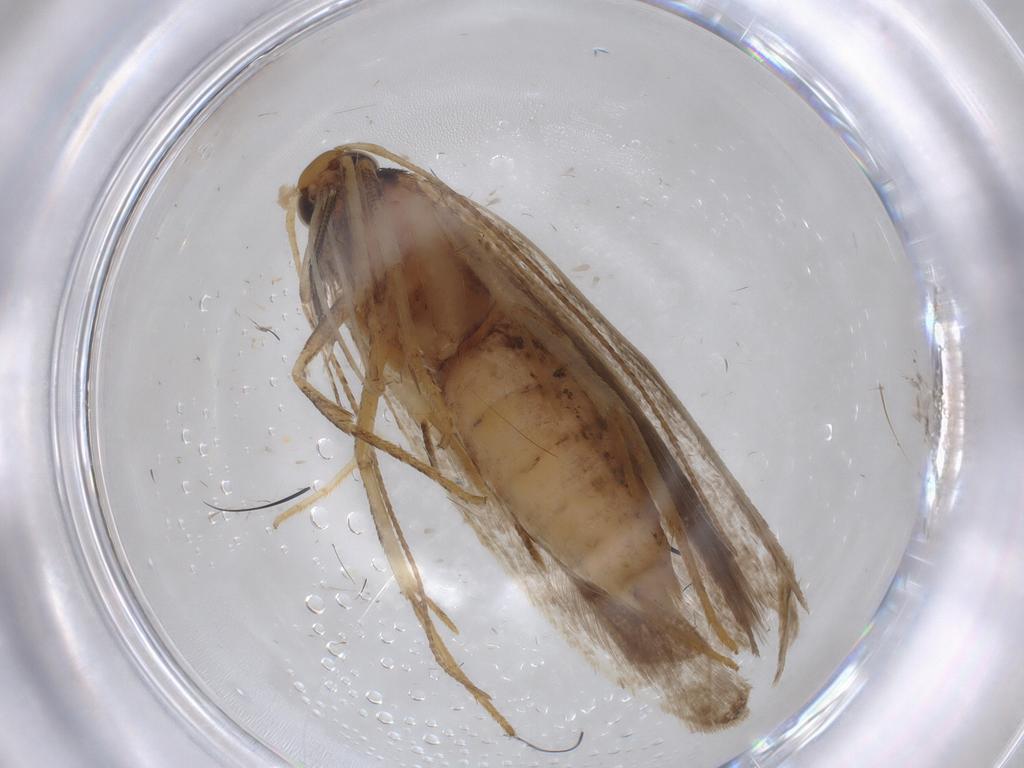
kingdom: Animalia
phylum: Arthropoda
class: Insecta
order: Lepidoptera
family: Gelechiidae
